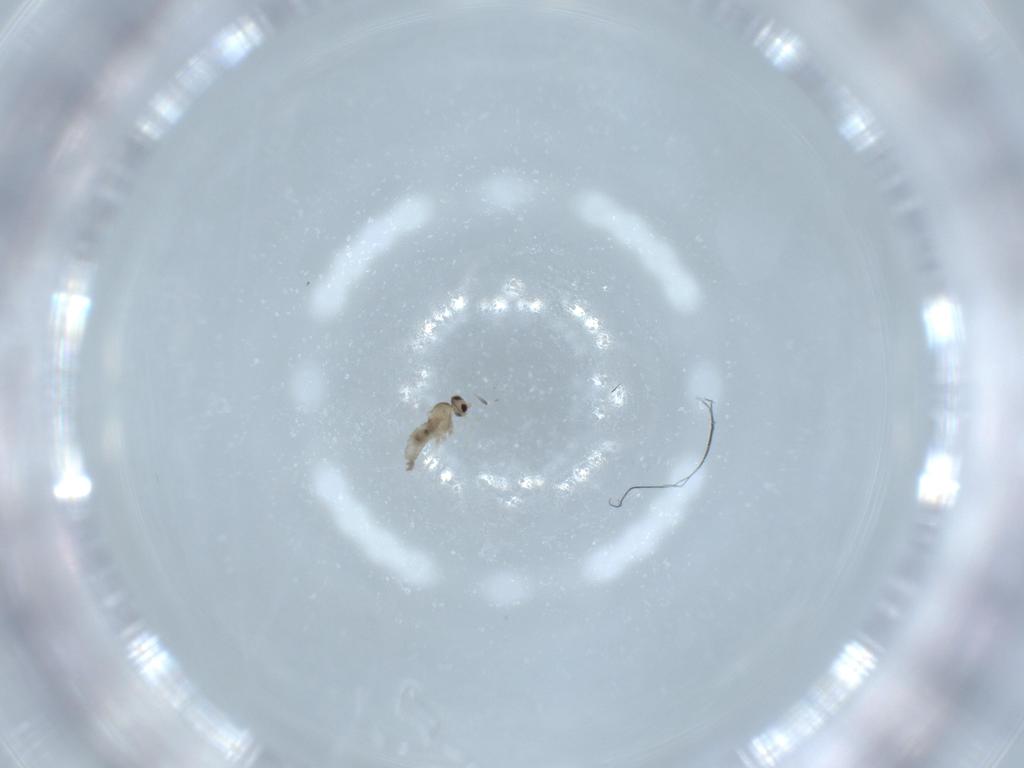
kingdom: Animalia
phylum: Arthropoda
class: Insecta
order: Diptera
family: Cecidomyiidae
